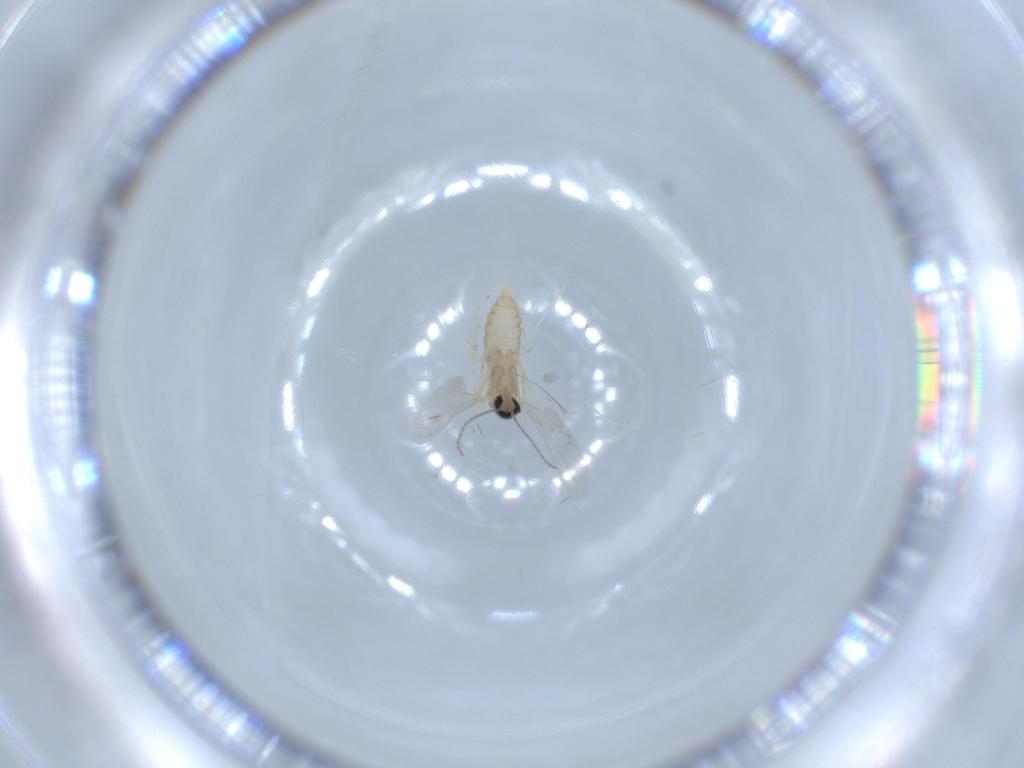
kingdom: Animalia
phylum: Arthropoda
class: Insecta
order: Diptera
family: Cecidomyiidae
